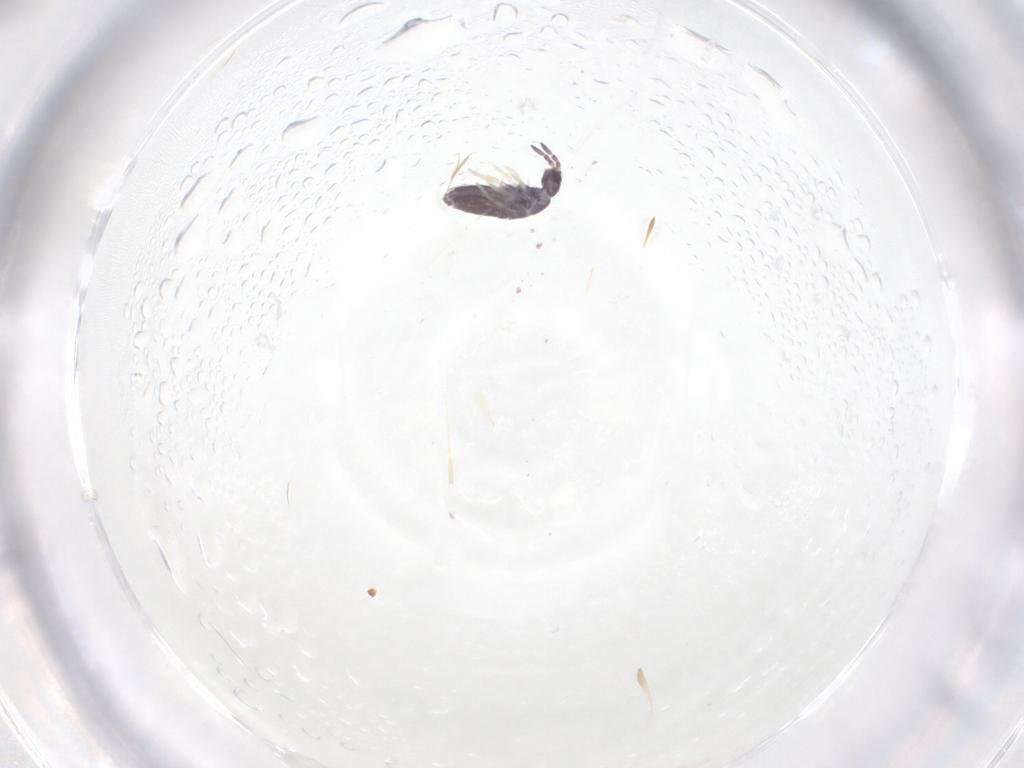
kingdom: Animalia
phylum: Arthropoda
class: Collembola
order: Entomobryomorpha
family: Entomobryidae
